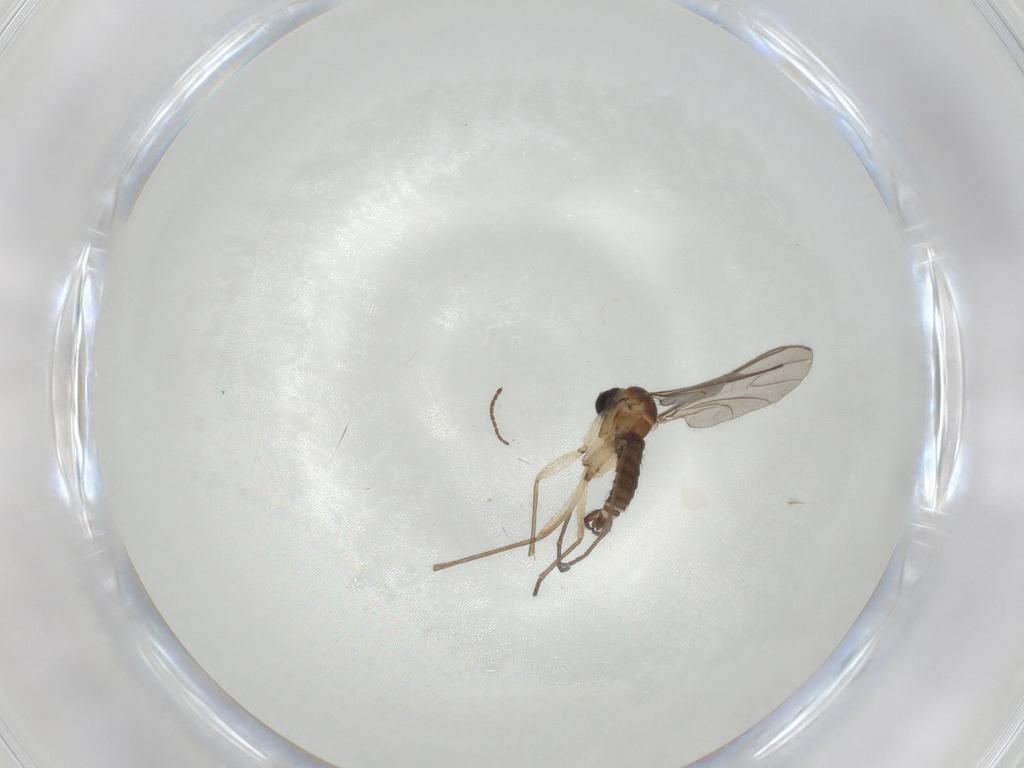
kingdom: Animalia
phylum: Arthropoda
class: Insecta
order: Diptera
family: Sciaridae
